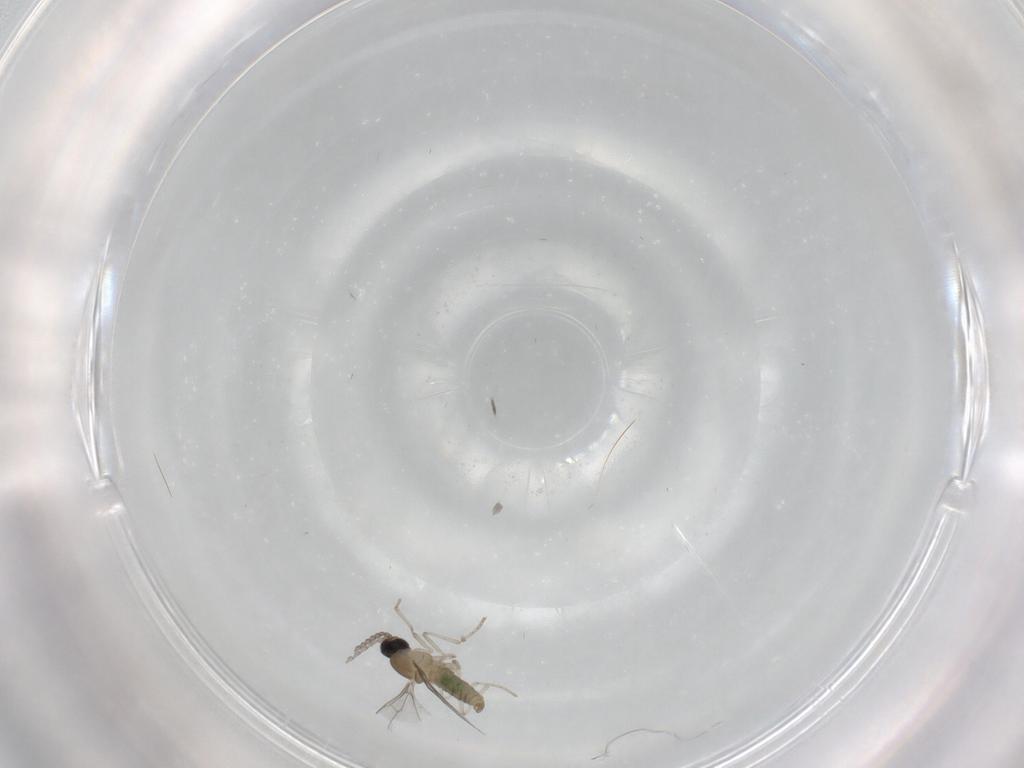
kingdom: Animalia
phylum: Arthropoda
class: Insecta
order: Diptera
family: Cecidomyiidae
